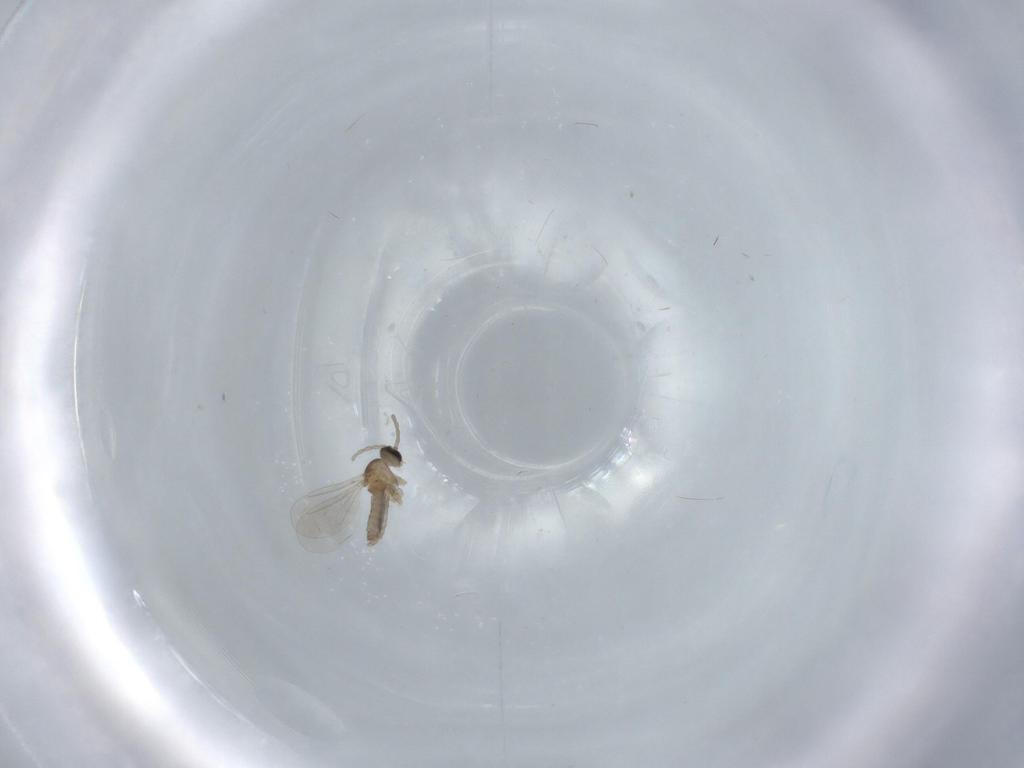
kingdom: Animalia
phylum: Arthropoda
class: Insecta
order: Diptera
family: Cecidomyiidae
